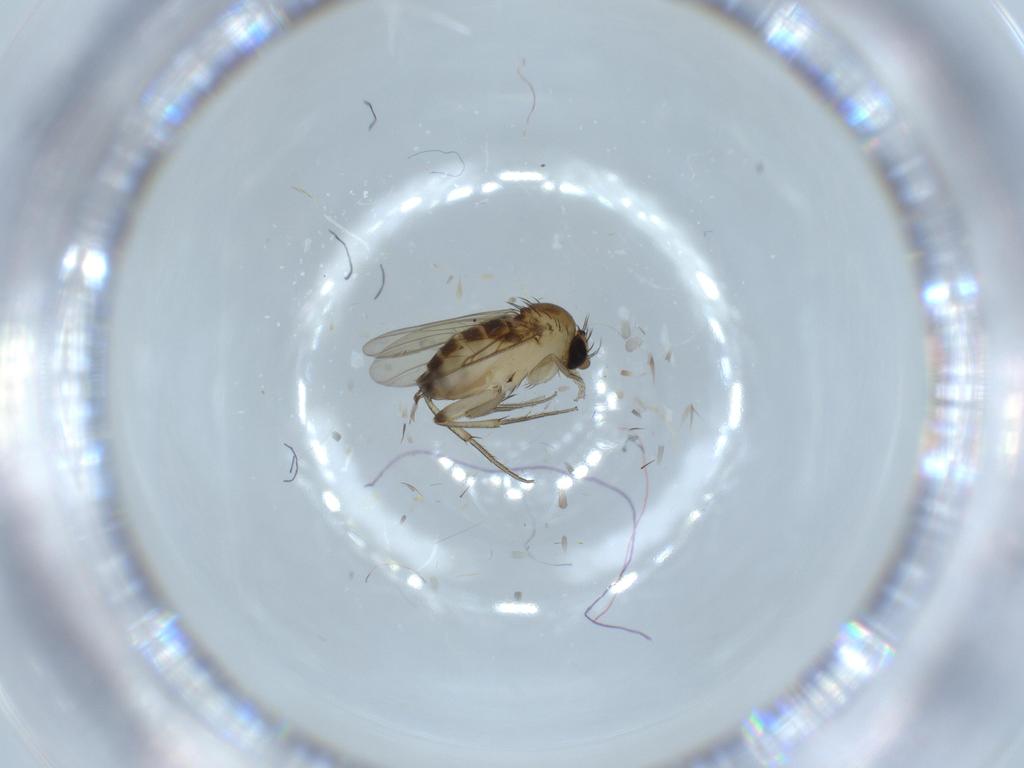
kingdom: Animalia
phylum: Arthropoda
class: Insecta
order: Diptera
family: Phoridae
